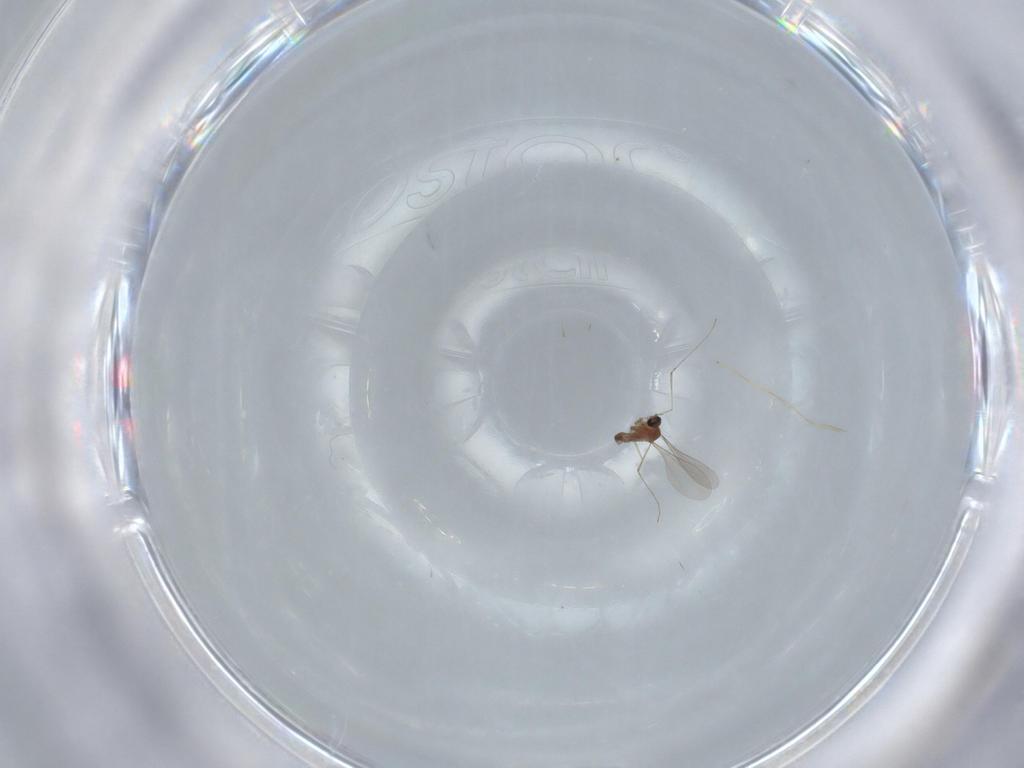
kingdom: Animalia
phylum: Arthropoda
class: Insecta
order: Diptera
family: Cecidomyiidae
